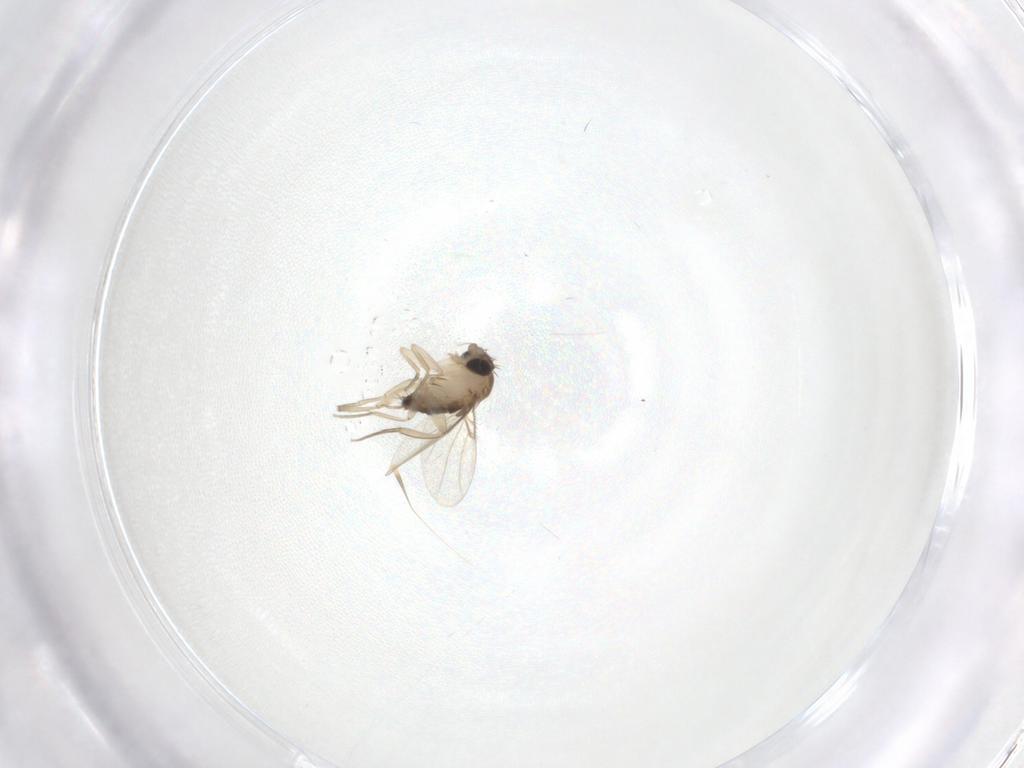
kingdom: Animalia
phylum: Arthropoda
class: Insecta
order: Diptera
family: Phoridae
